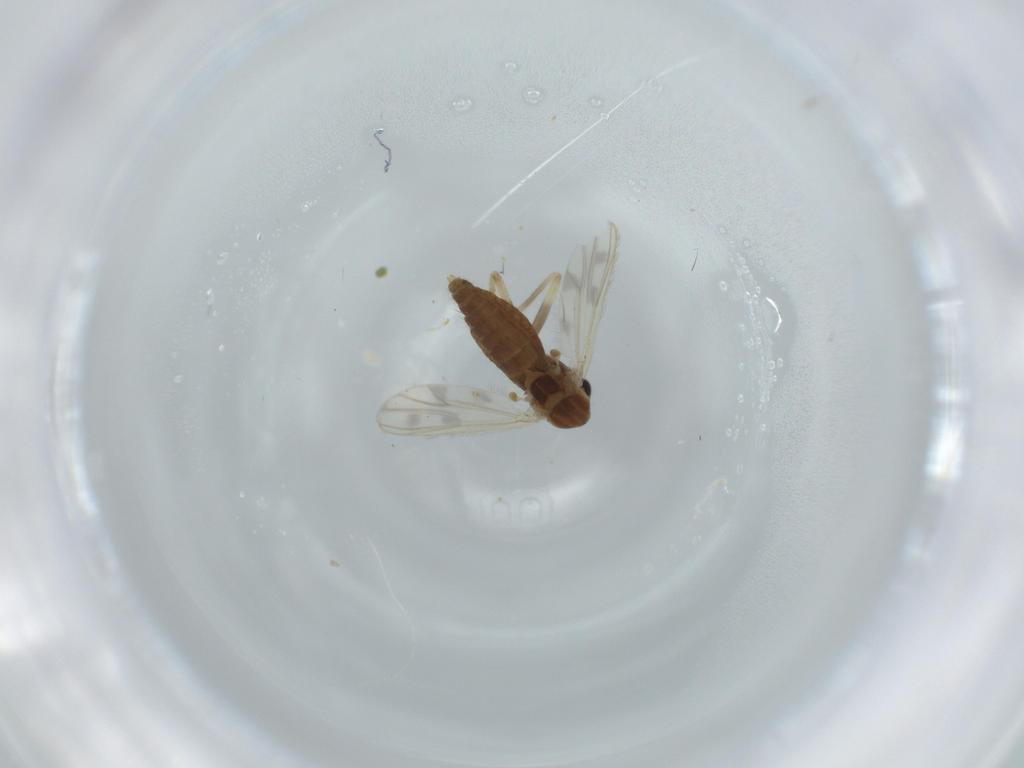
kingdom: Animalia
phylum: Arthropoda
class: Insecta
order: Diptera
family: Chironomidae
